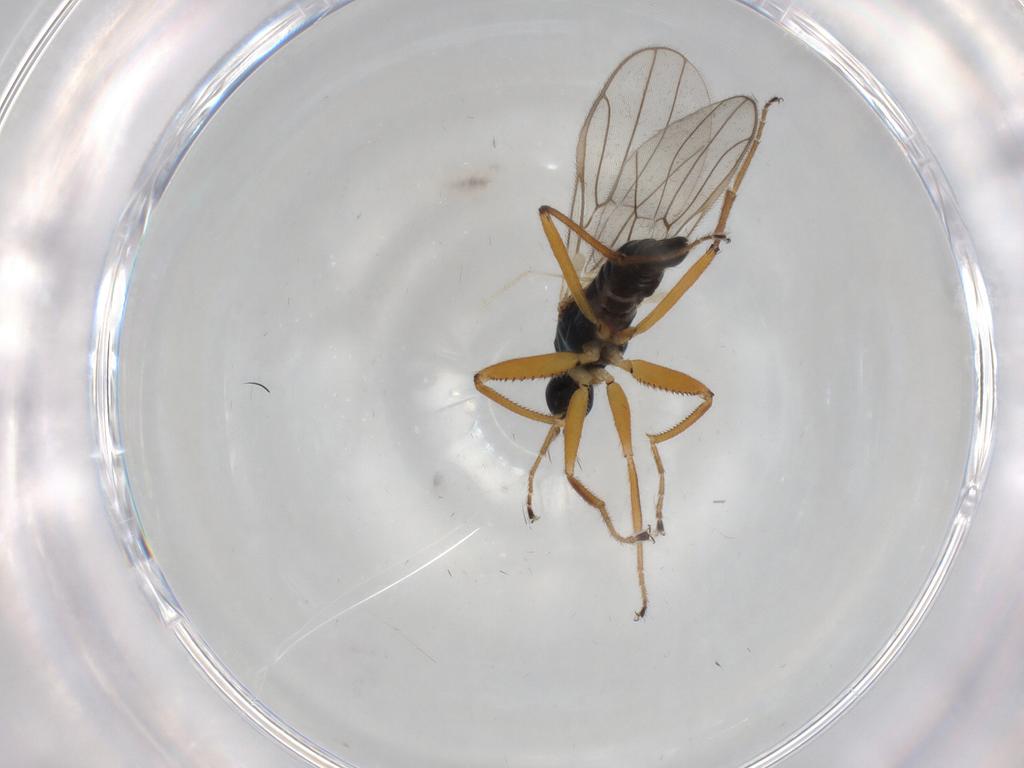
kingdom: Animalia
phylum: Arthropoda
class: Insecta
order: Diptera
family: Hybotidae
